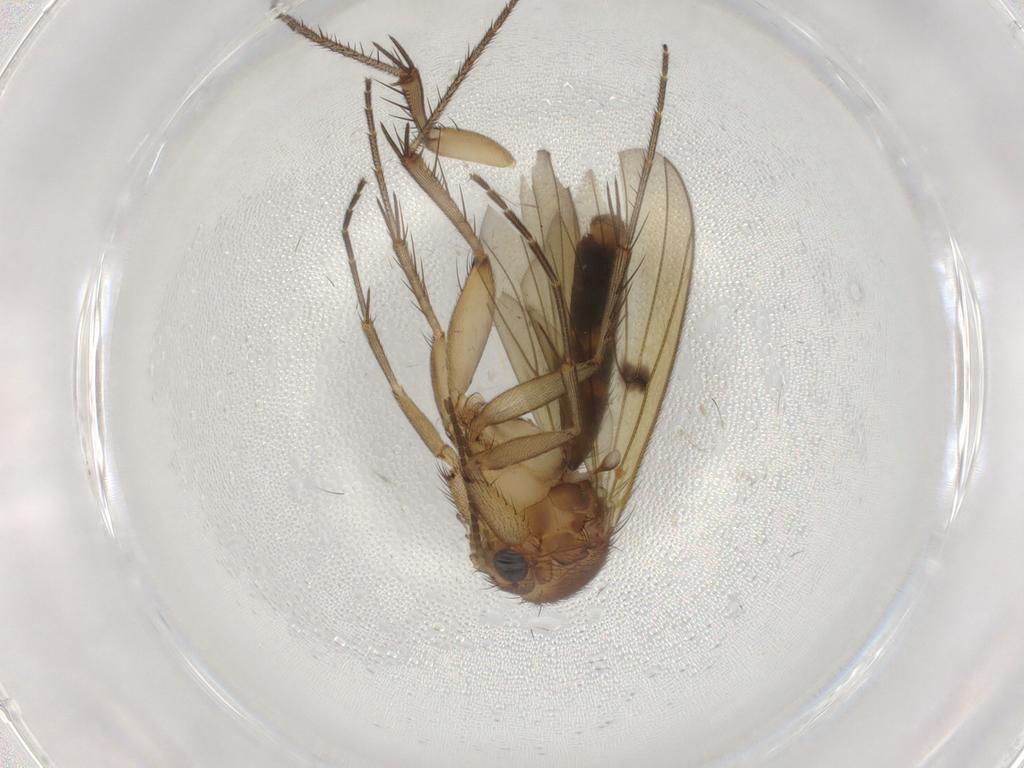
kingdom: Animalia
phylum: Arthropoda
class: Insecta
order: Diptera
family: Mycetophilidae
